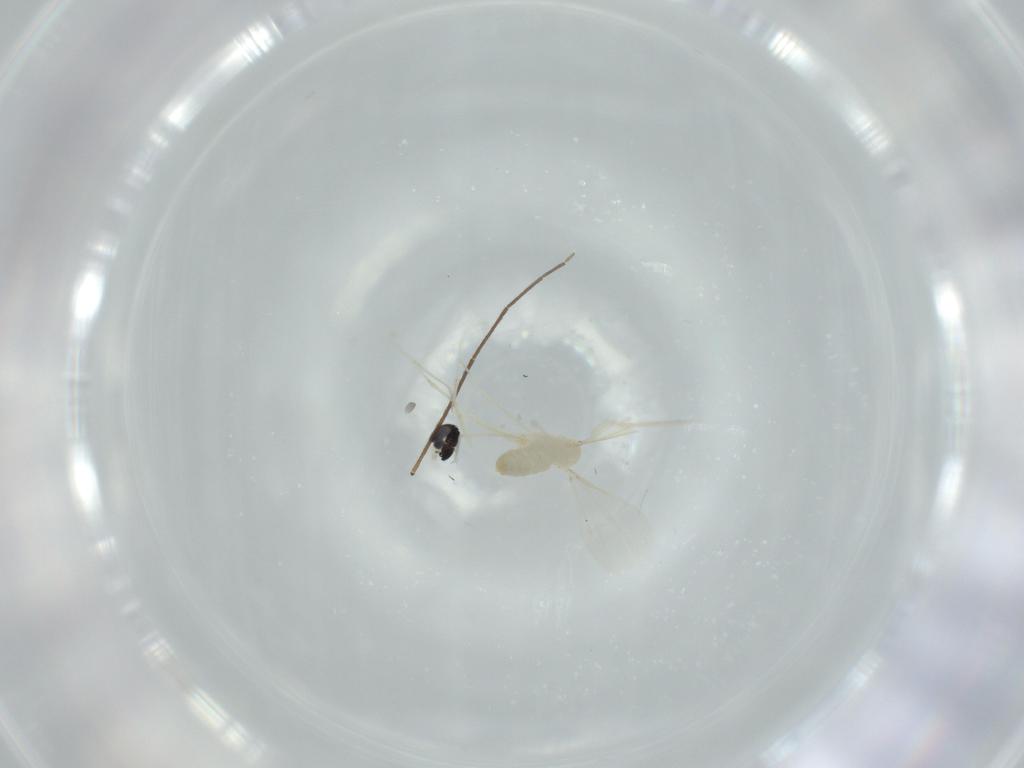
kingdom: Animalia
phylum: Arthropoda
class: Insecta
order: Diptera
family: Cecidomyiidae
